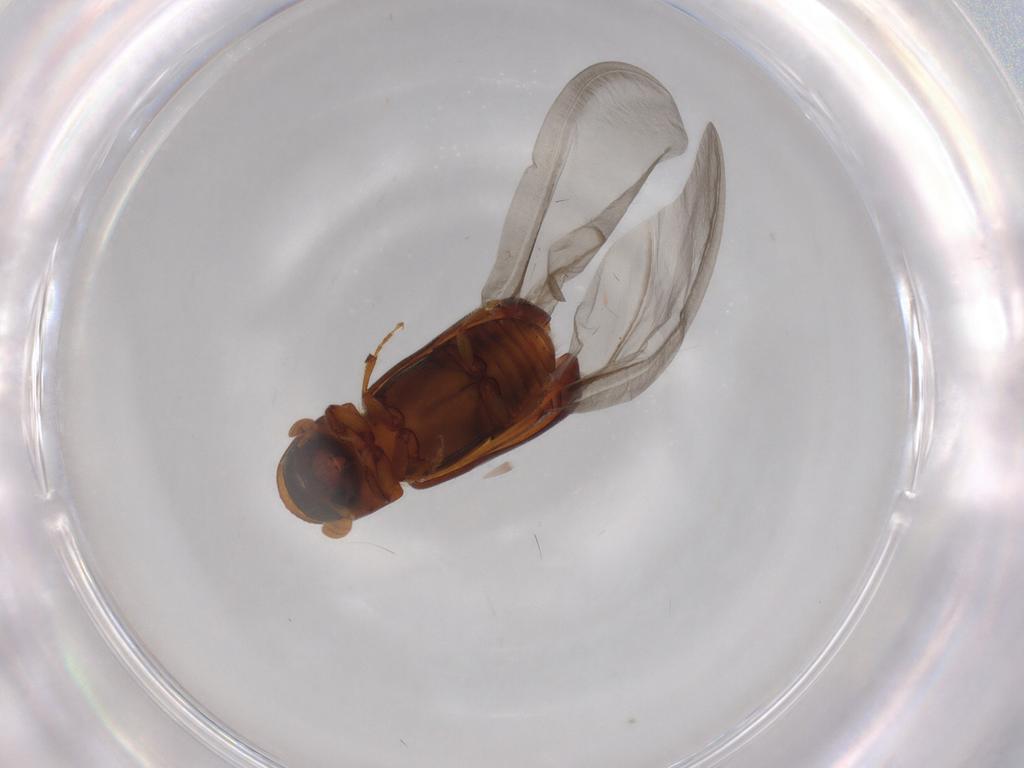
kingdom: Animalia
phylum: Arthropoda
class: Insecta
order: Coleoptera
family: Curculionidae
